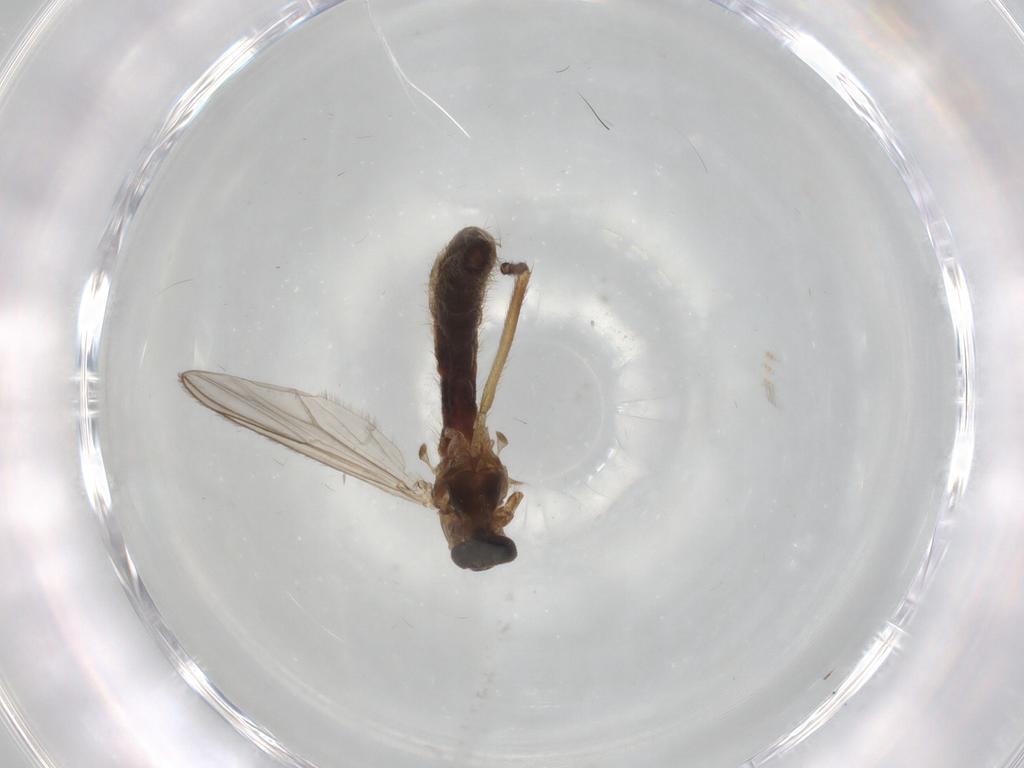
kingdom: Animalia
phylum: Arthropoda
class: Insecta
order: Diptera
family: Chironomidae
